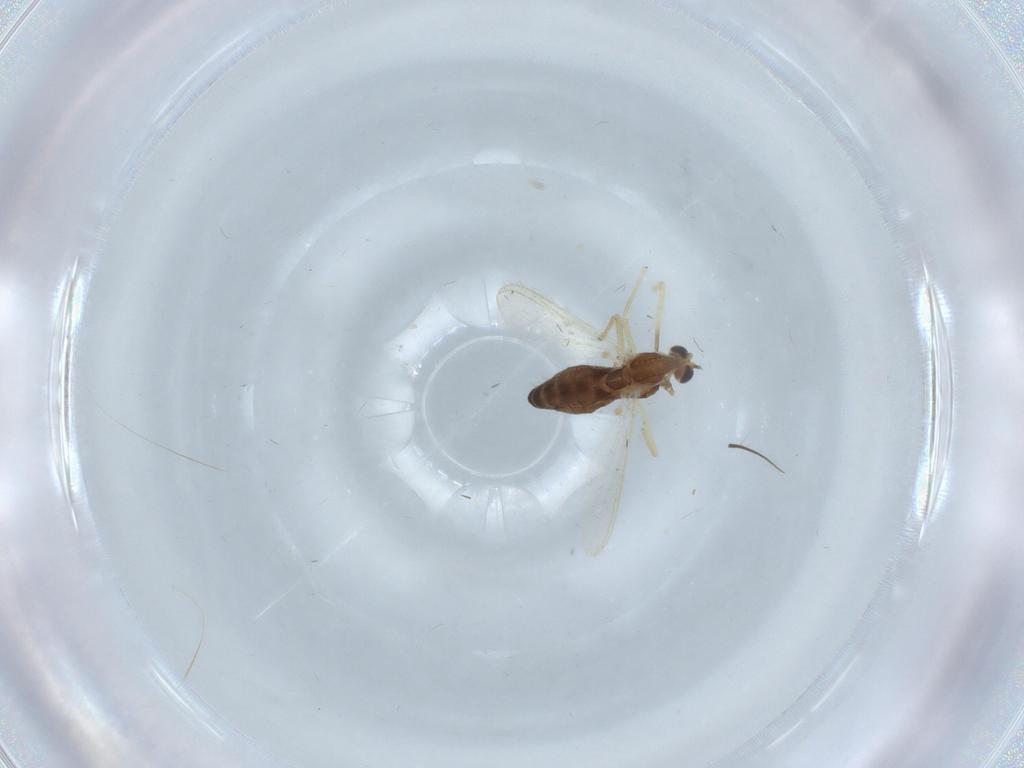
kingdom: Animalia
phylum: Arthropoda
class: Insecta
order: Diptera
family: Chironomidae
